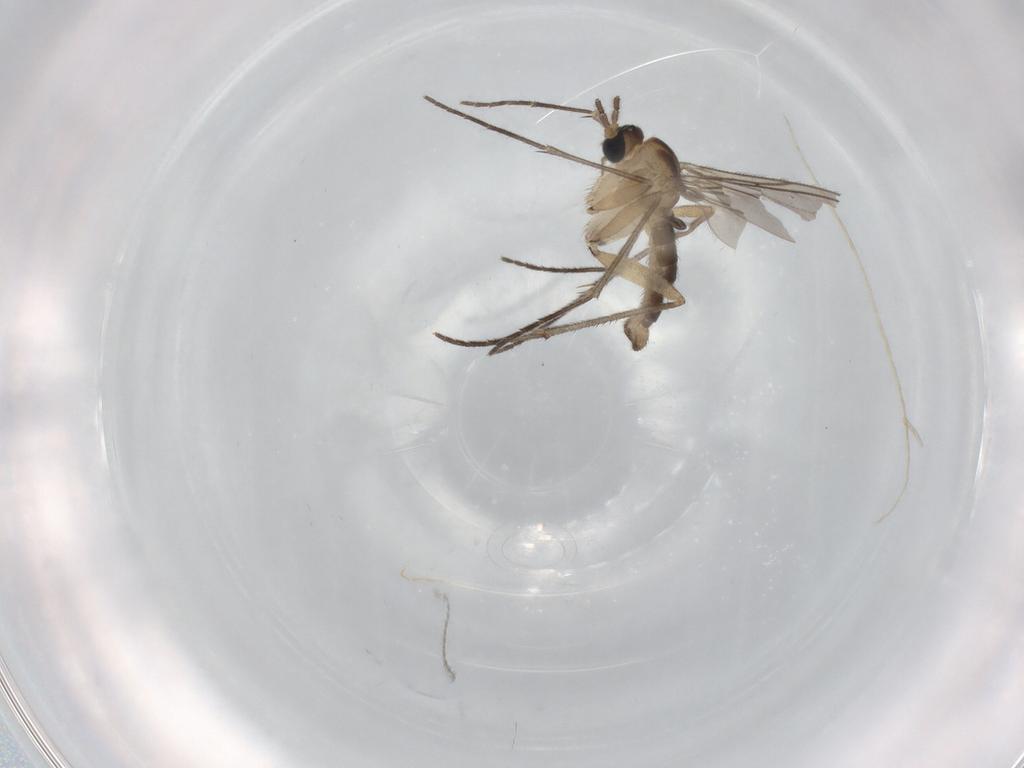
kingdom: Animalia
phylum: Arthropoda
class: Insecta
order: Diptera
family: Sciaridae
